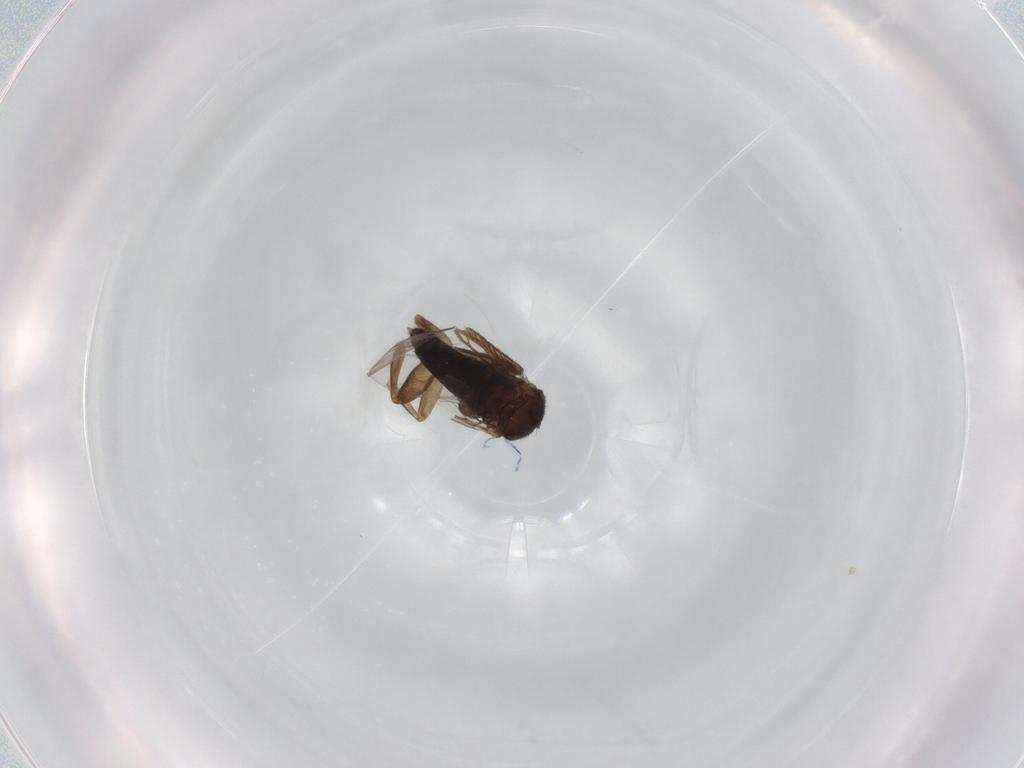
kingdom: Animalia
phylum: Arthropoda
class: Insecta
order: Diptera
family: Phoridae
